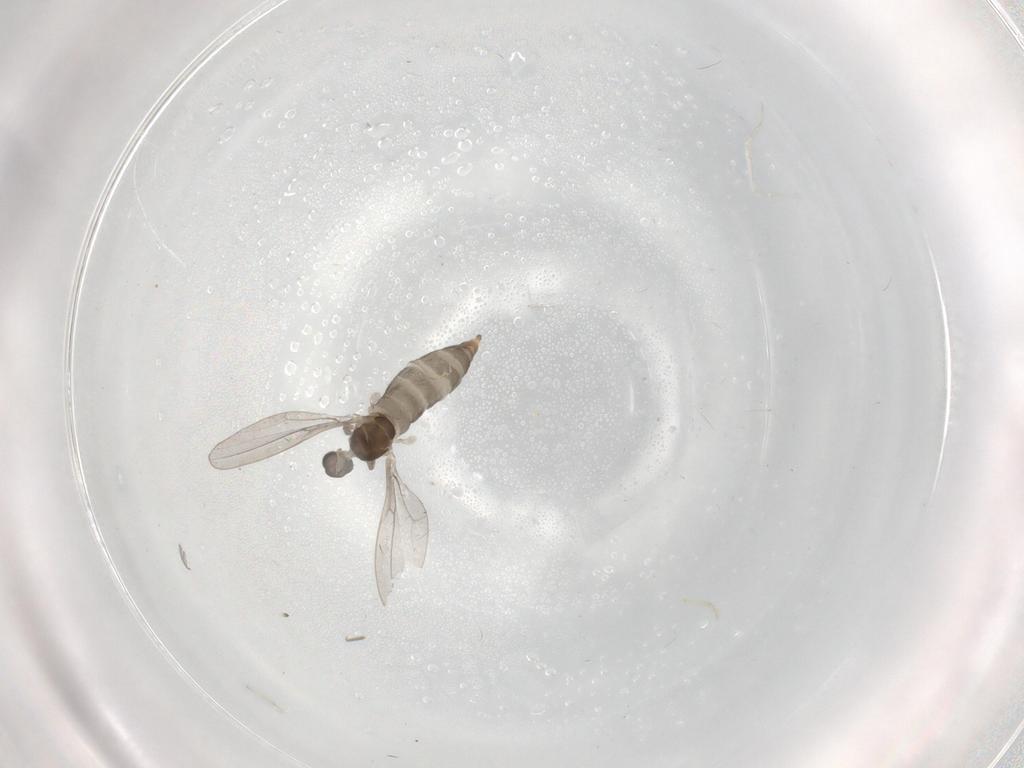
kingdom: Animalia
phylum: Arthropoda
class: Insecta
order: Diptera
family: Cecidomyiidae
